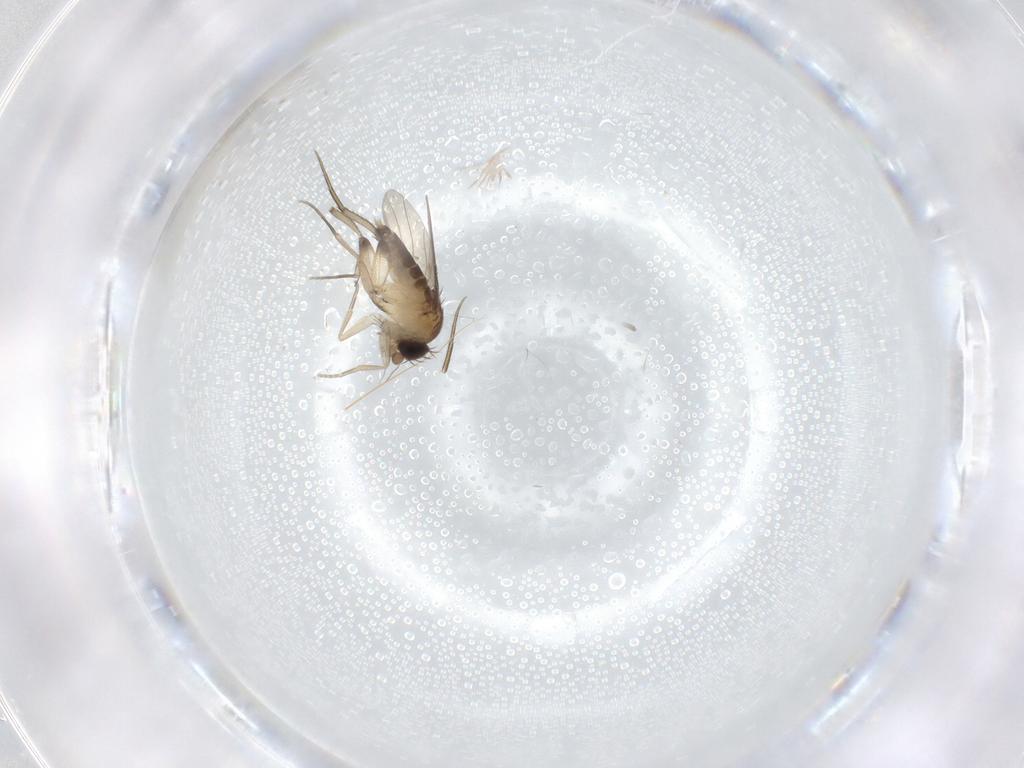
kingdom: Animalia
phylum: Arthropoda
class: Insecta
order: Diptera
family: Phoridae
